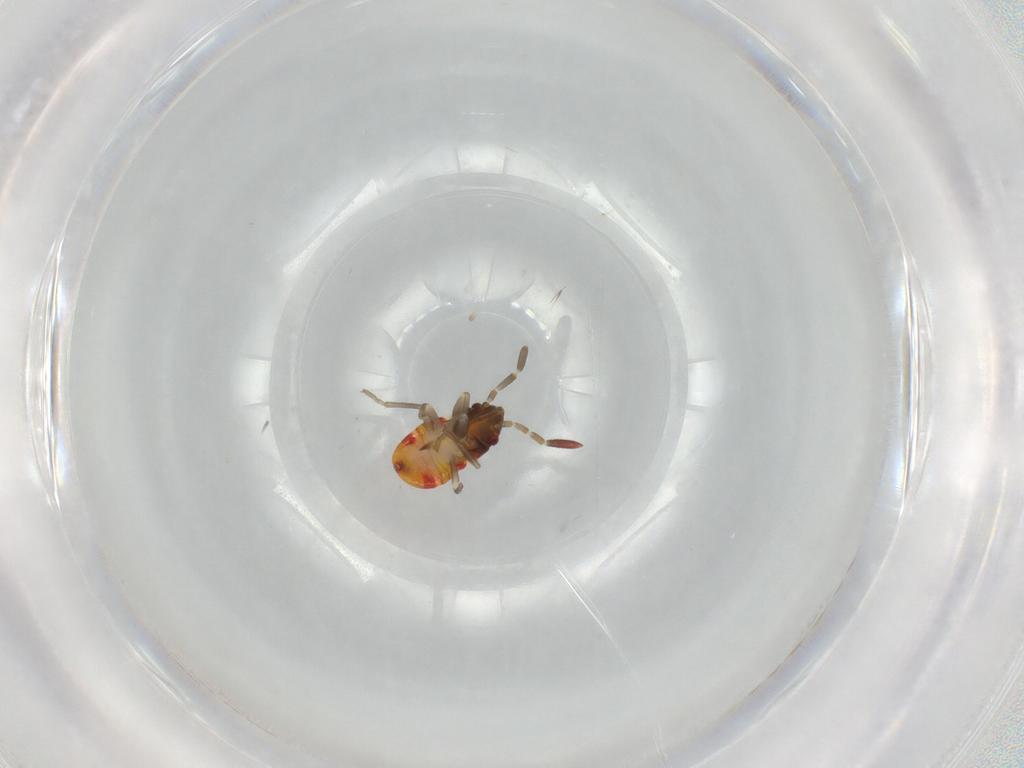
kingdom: Animalia
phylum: Arthropoda
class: Insecta
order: Hemiptera
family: Rhyparochromidae
